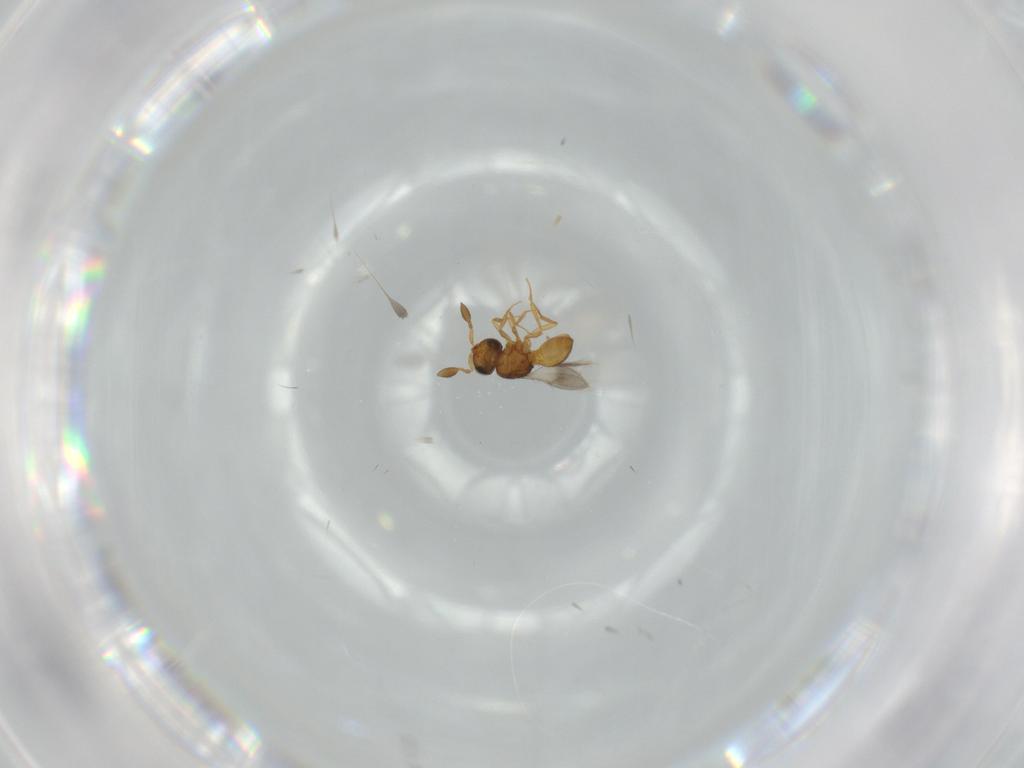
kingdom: Animalia
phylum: Arthropoda
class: Insecta
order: Hymenoptera
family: Scelionidae
